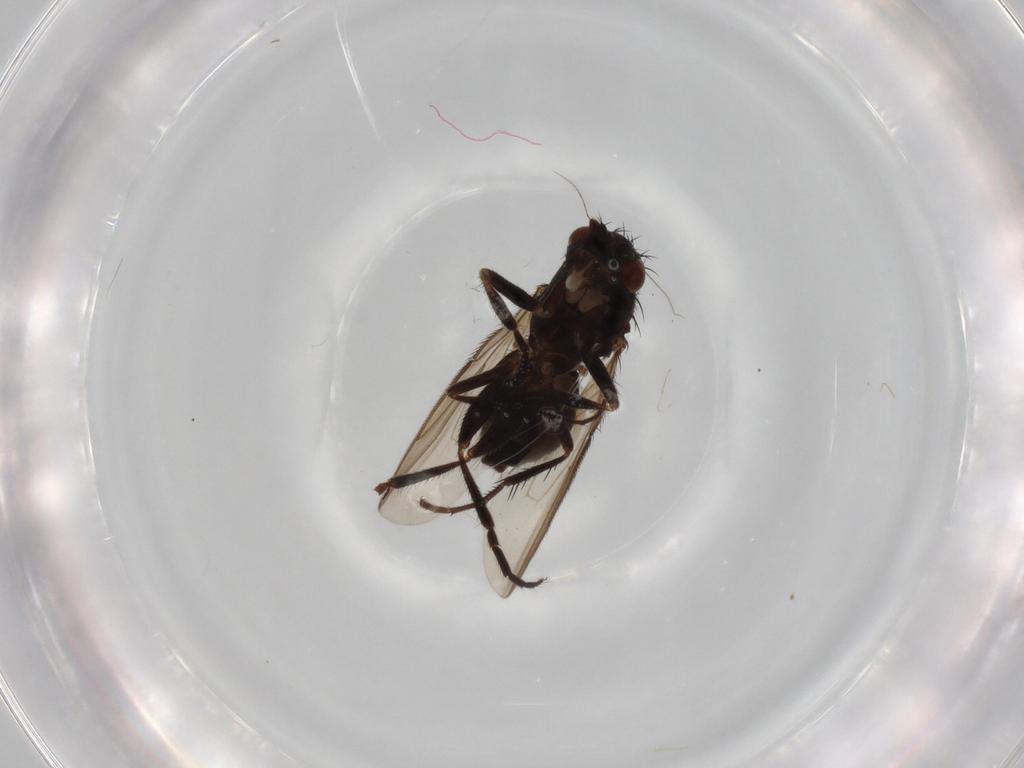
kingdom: Animalia
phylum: Arthropoda
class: Insecta
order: Diptera
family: Sphaeroceridae
